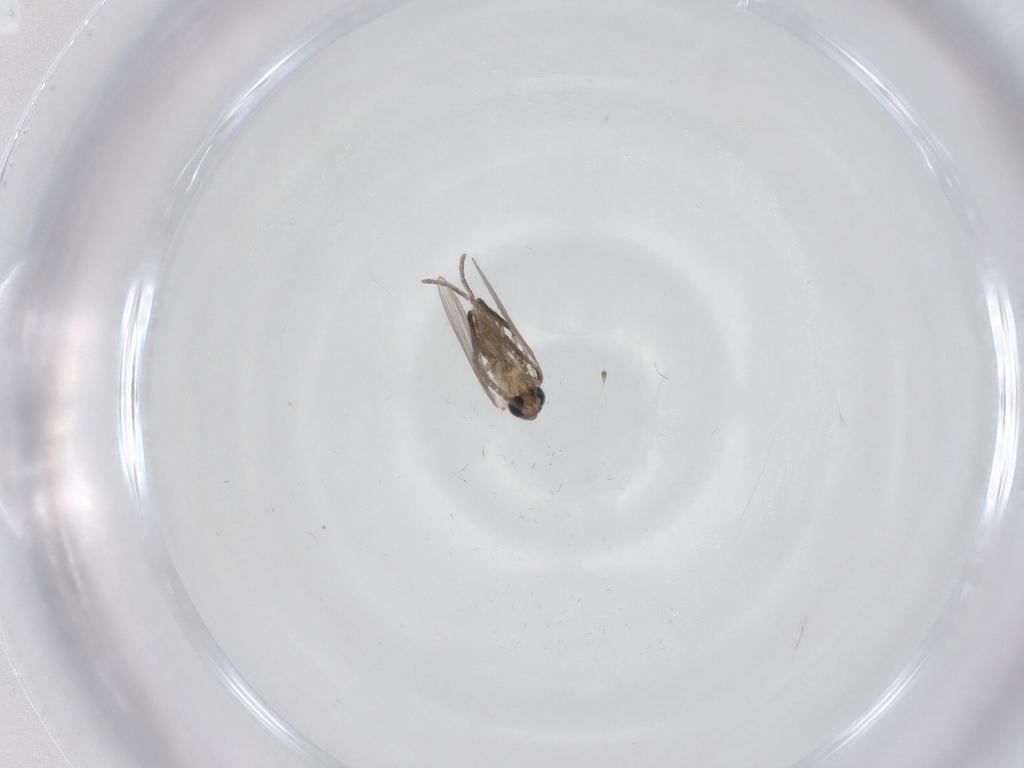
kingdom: Animalia
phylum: Arthropoda
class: Insecta
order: Diptera
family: Psychodidae
